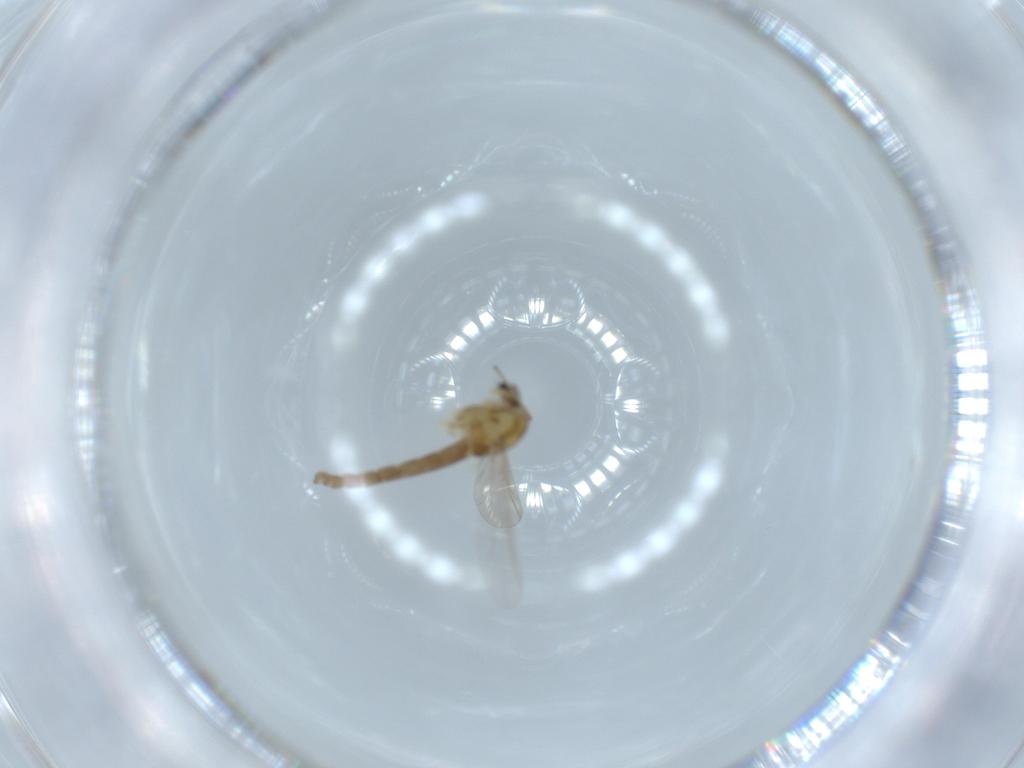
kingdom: Animalia
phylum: Arthropoda
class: Insecta
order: Diptera
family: Chironomidae
